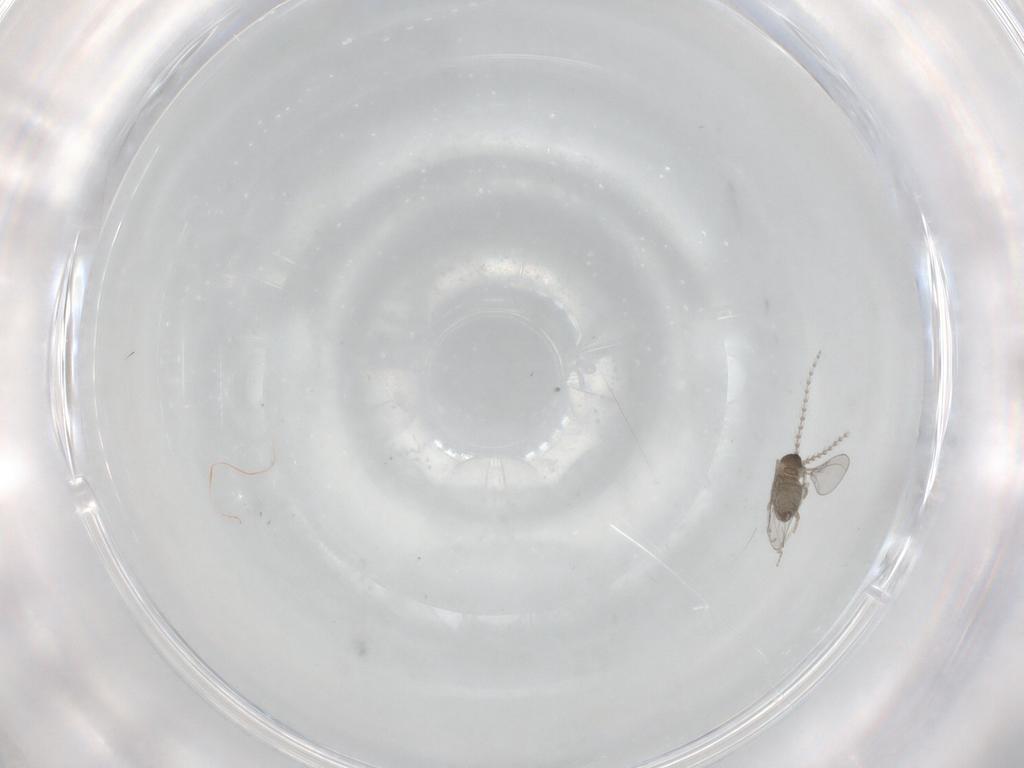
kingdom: Animalia
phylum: Arthropoda
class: Insecta
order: Diptera
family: Cecidomyiidae
